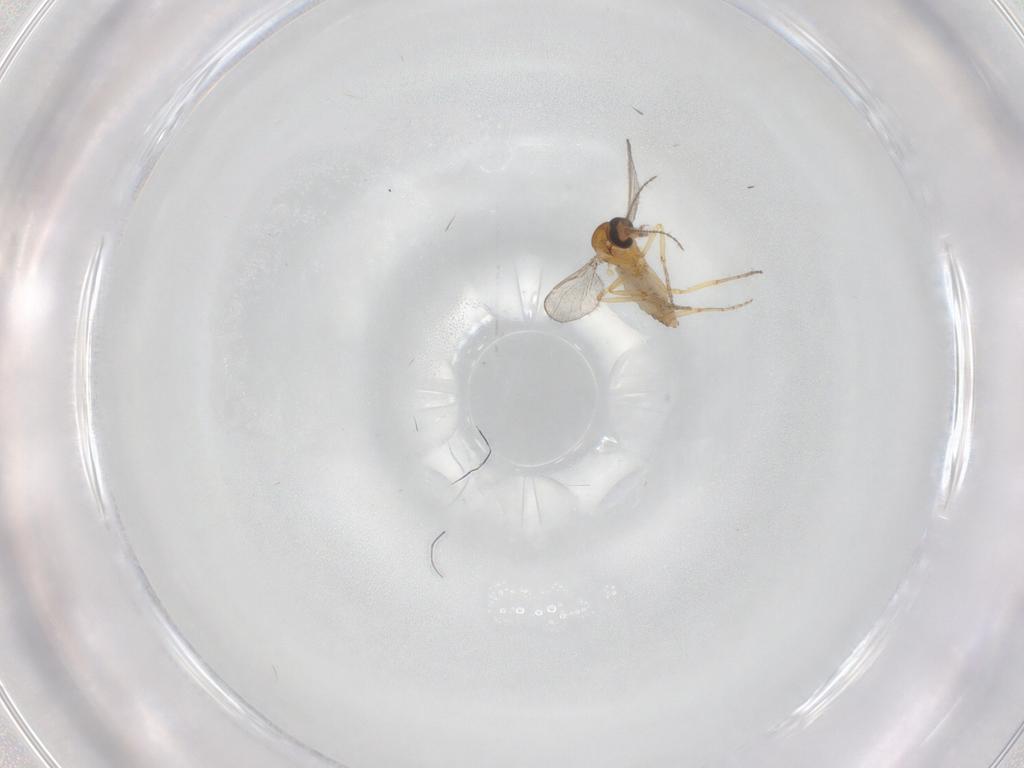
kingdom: Animalia
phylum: Arthropoda
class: Insecta
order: Diptera
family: Ceratopogonidae
